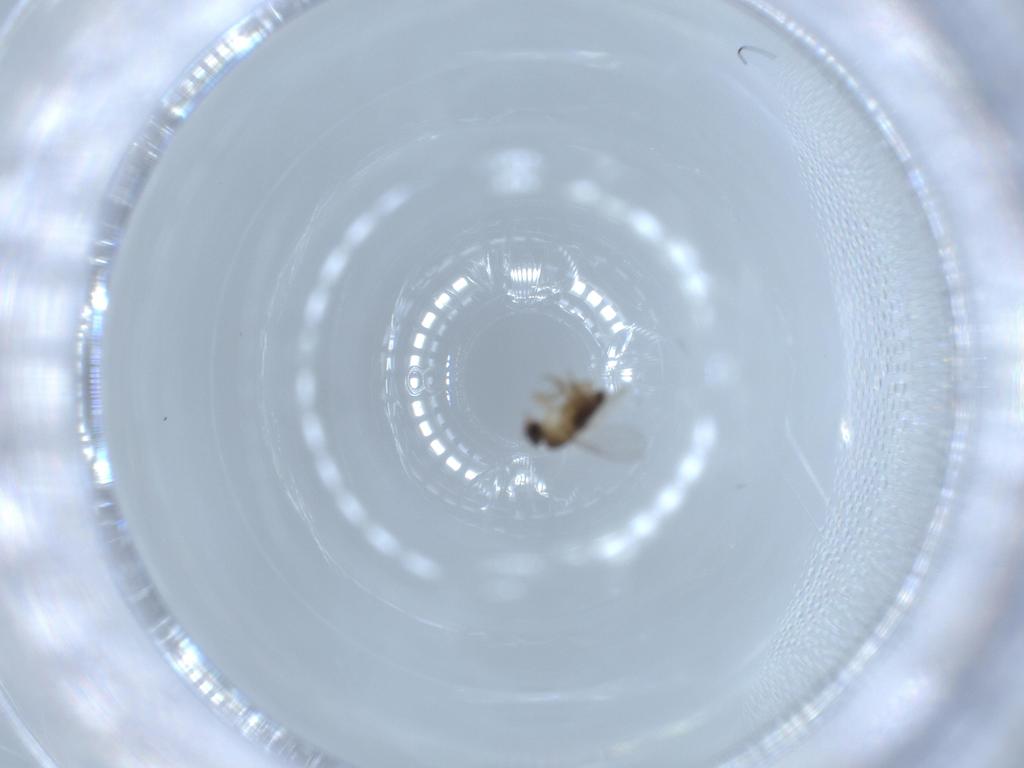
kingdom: Animalia
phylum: Arthropoda
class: Insecta
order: Diptera
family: Phoridae
